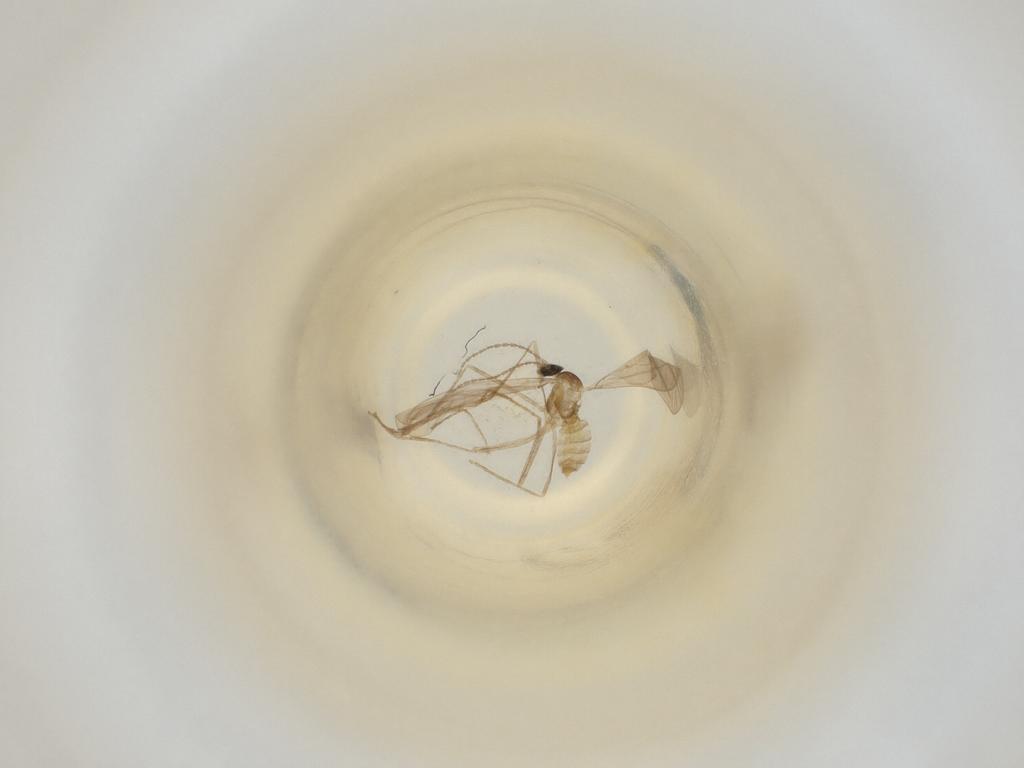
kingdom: Animalia
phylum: Arthropoda
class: Insecta
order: Diptera
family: Cecidomyiidae
